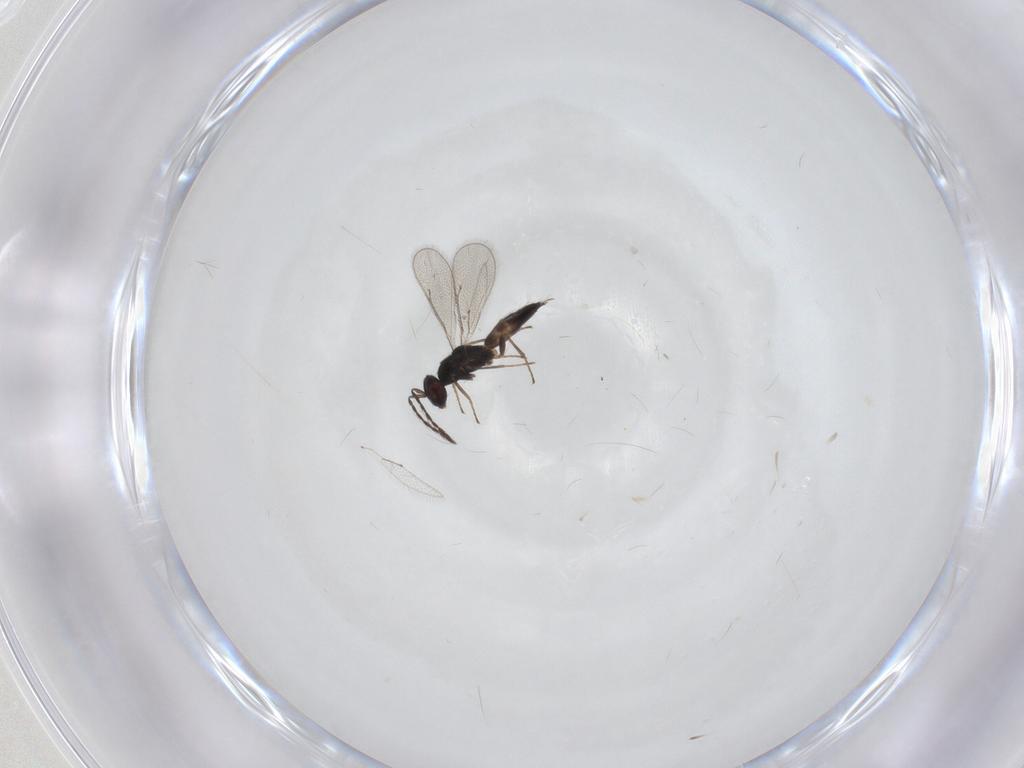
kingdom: Animalia
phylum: Arthropoda
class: Insecta
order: Hymenoptera
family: Eulophidae
